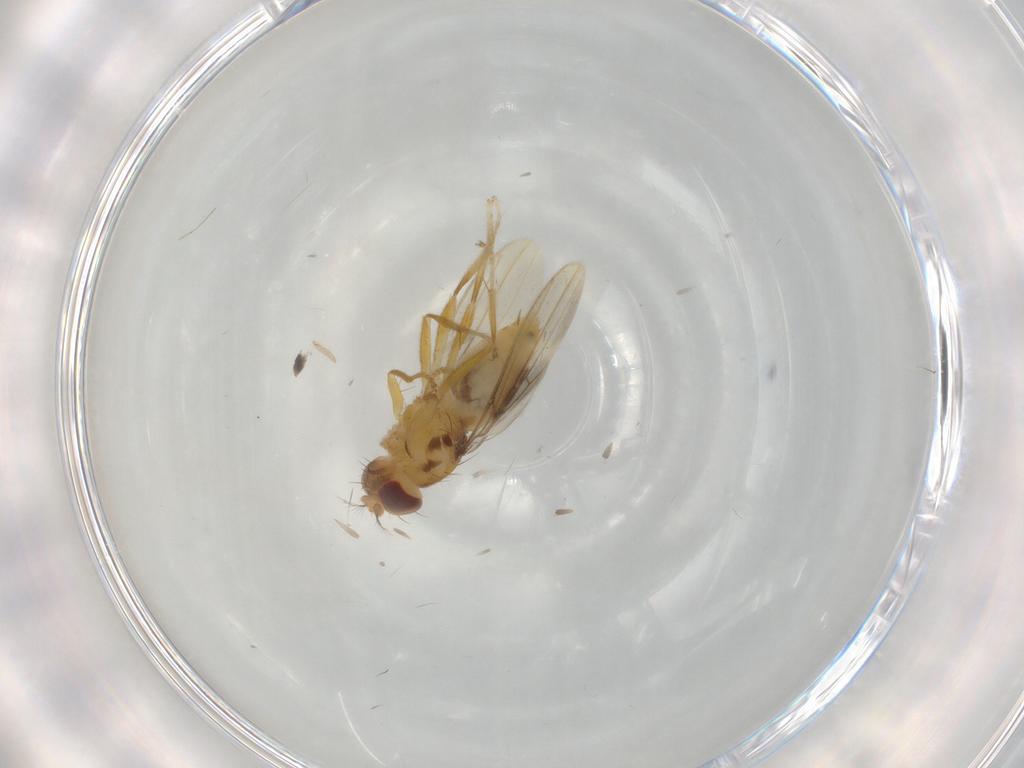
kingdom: Animalia
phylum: Arthropoda
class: Insecta
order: Diptera
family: Periscelididae
